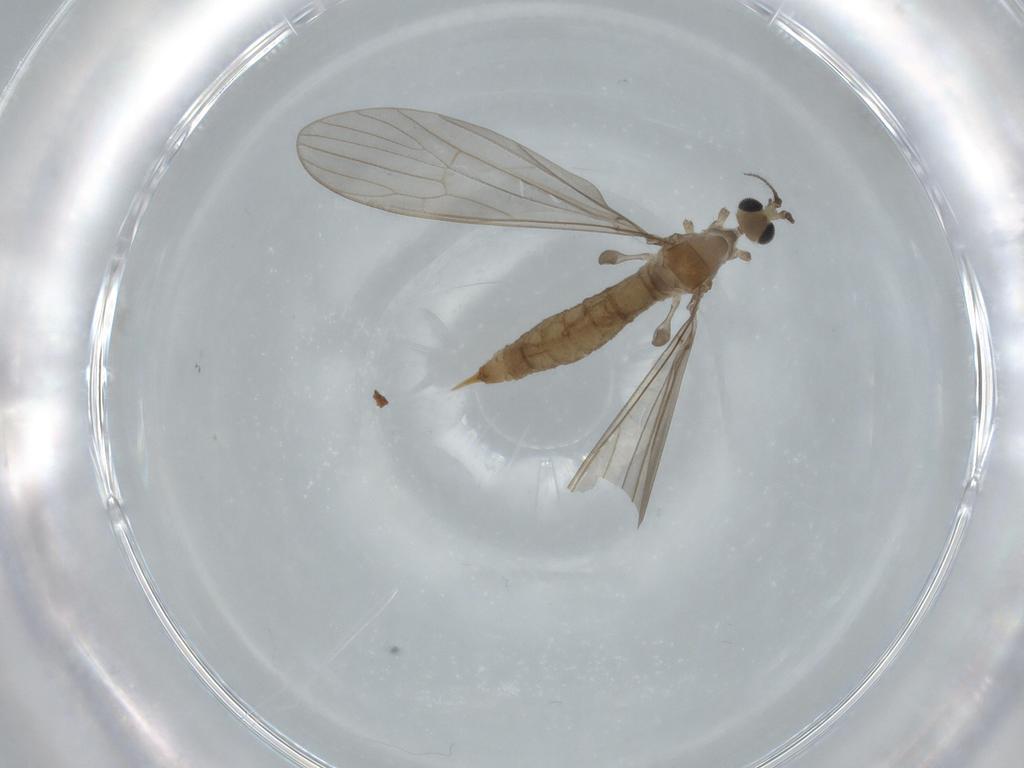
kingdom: Animalia
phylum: Arthropoda
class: Insecta
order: Diptera
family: Limoniidae
